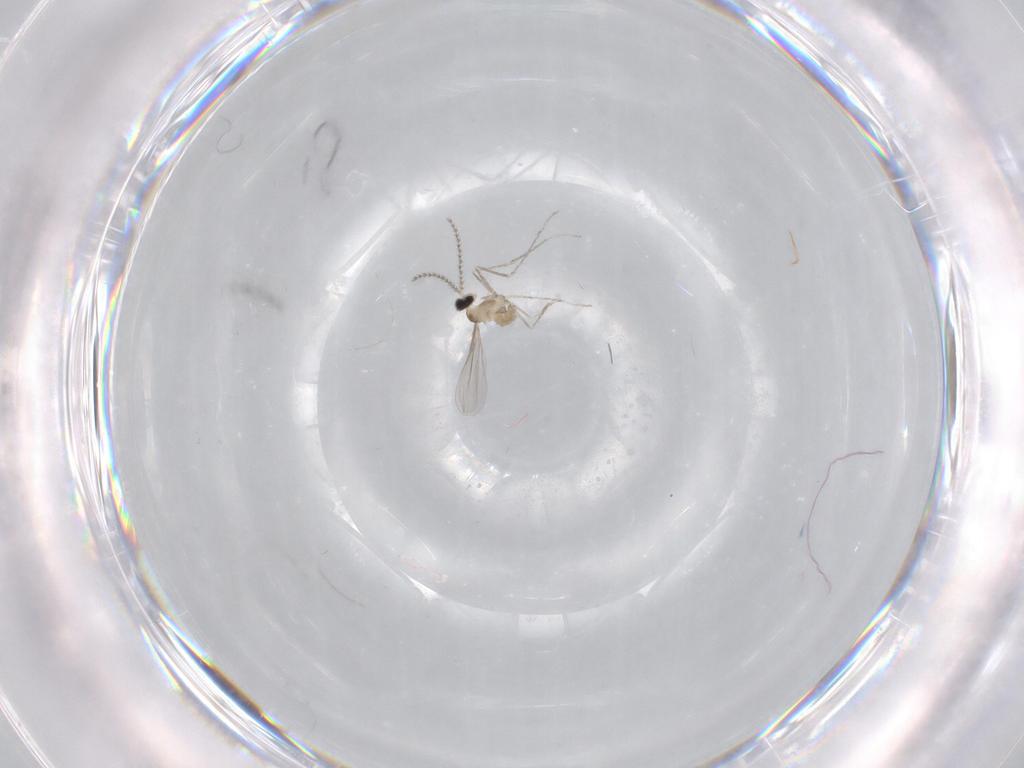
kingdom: Animalia
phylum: Arthropoda
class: Insecta
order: Diptera
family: Cecidomyiidae
